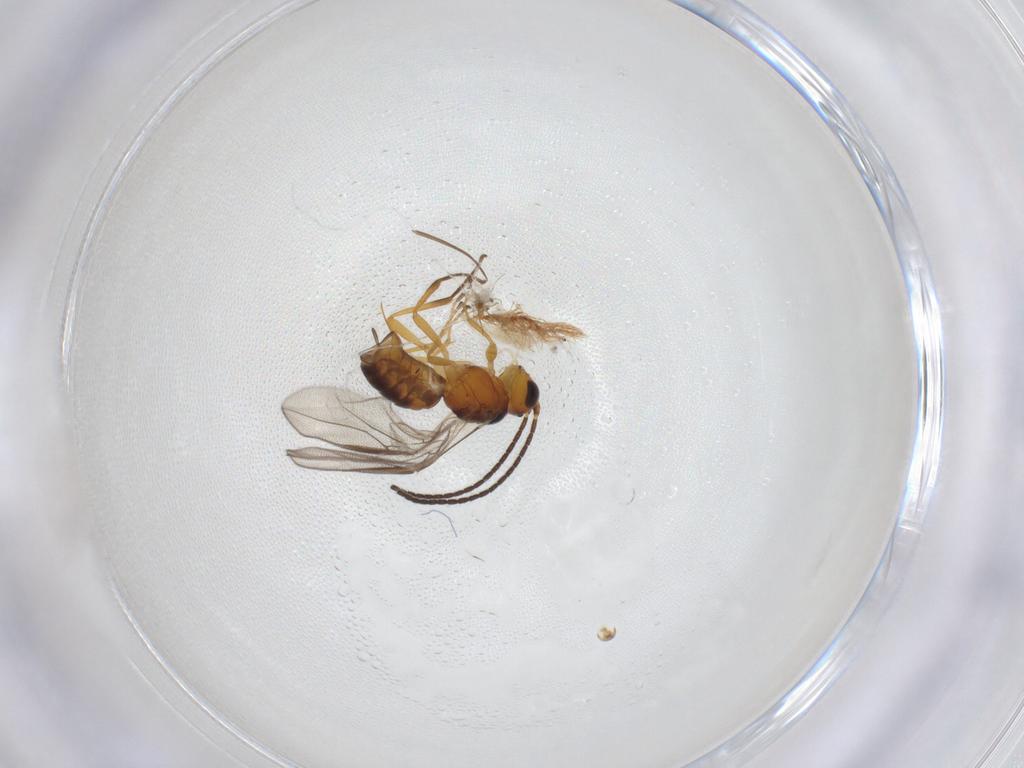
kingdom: Animalia
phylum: Arthropoda
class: Insecta
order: Hymenoptera
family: Braconidae
